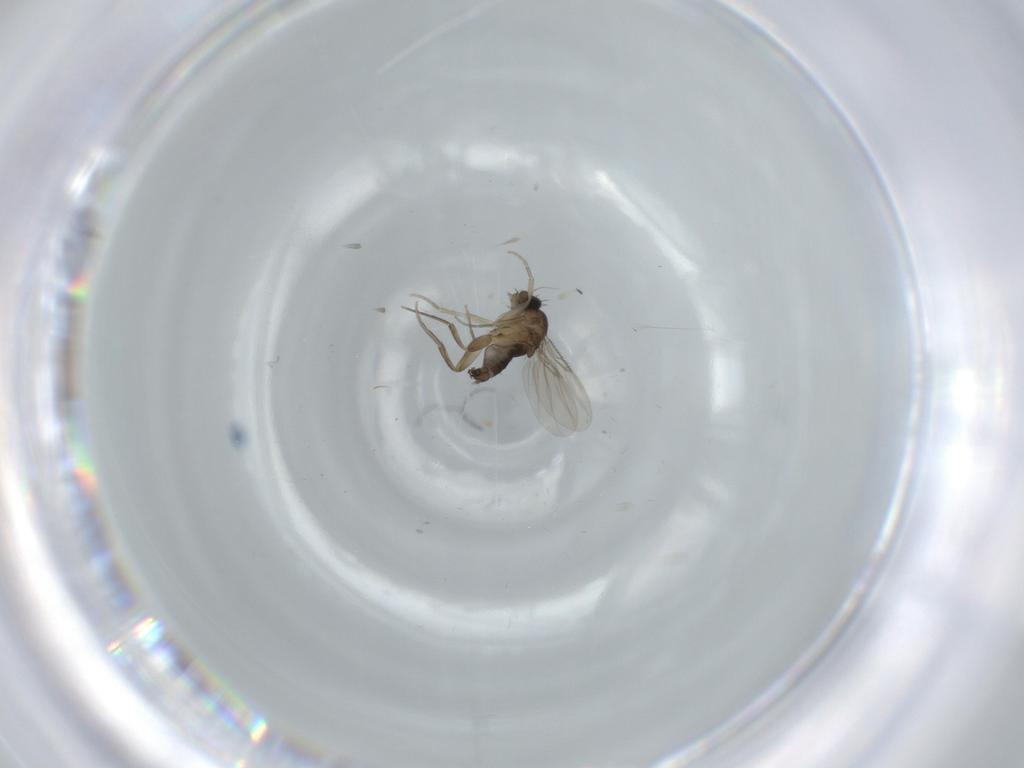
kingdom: Animalia
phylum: Arthropoda
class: Insecta
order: Diptera
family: Phoridae
